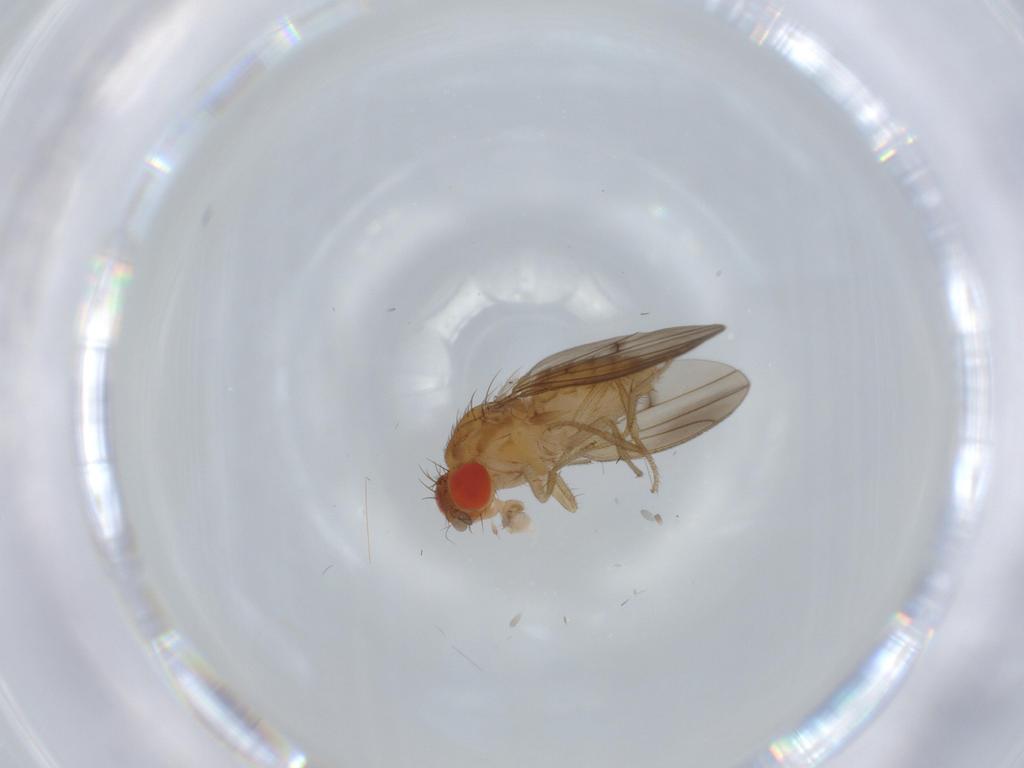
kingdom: Animalia
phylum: Arthropoda
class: Insecta
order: Diptera
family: Drosophilidae
